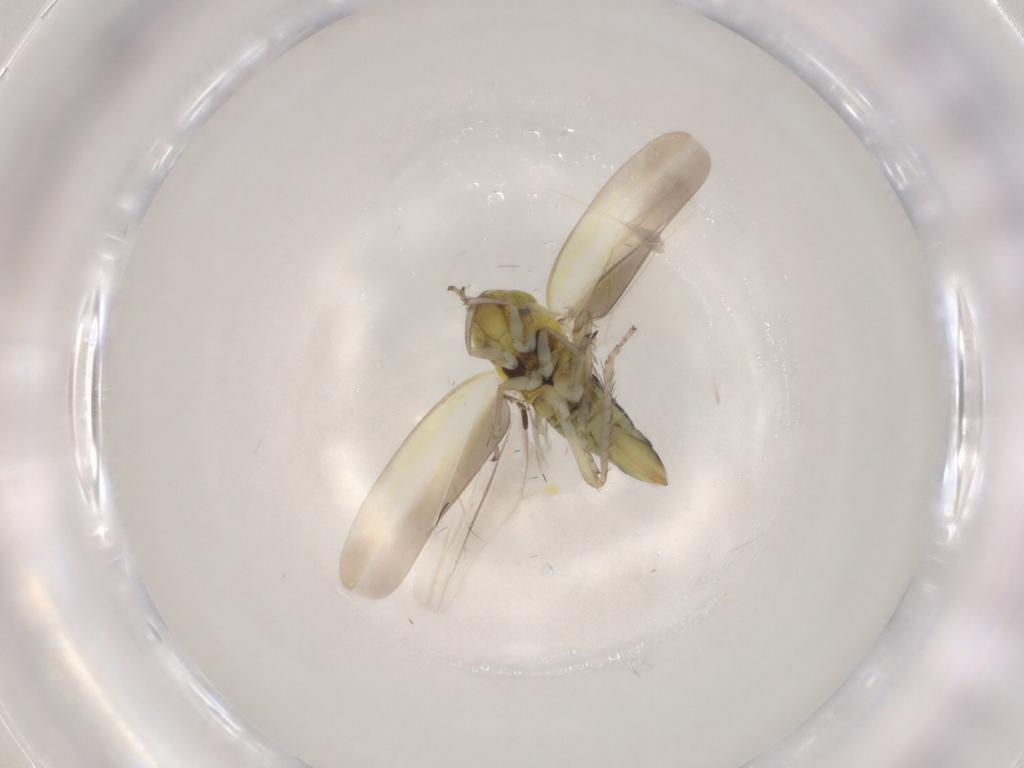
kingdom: Animalia
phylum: Arthropoda
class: Insecta
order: Hemiptera
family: Cicadellidae
